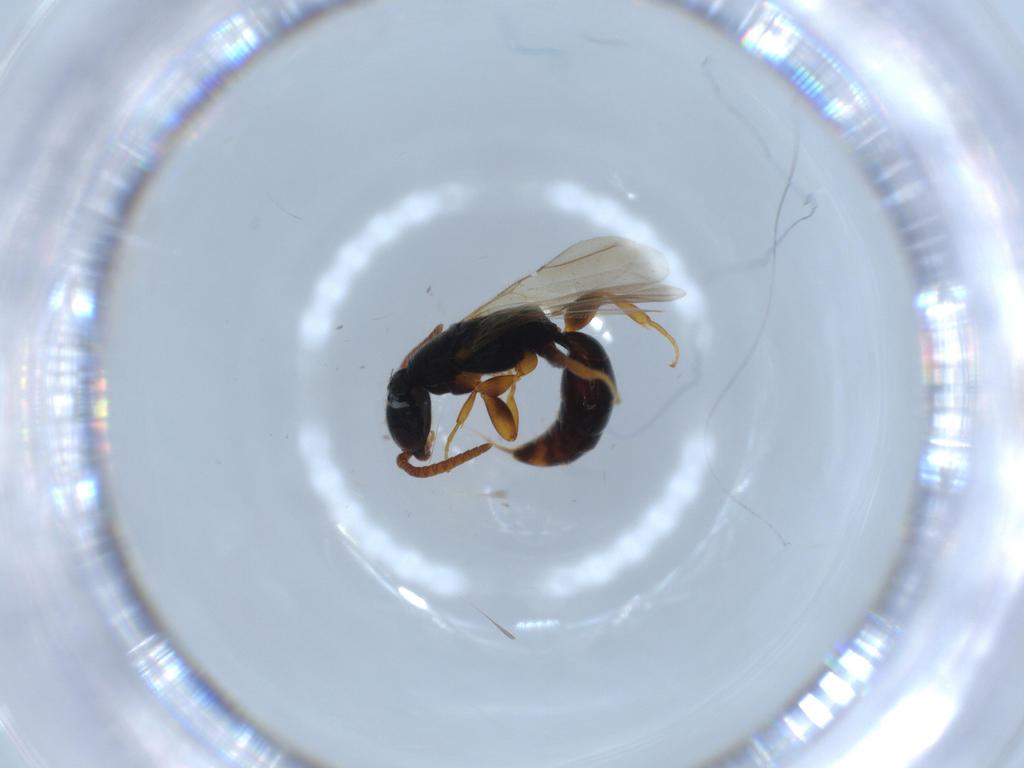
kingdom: Animalia
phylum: Arthropoda
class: Insecta
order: Hymenoptera
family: Bethylidae
